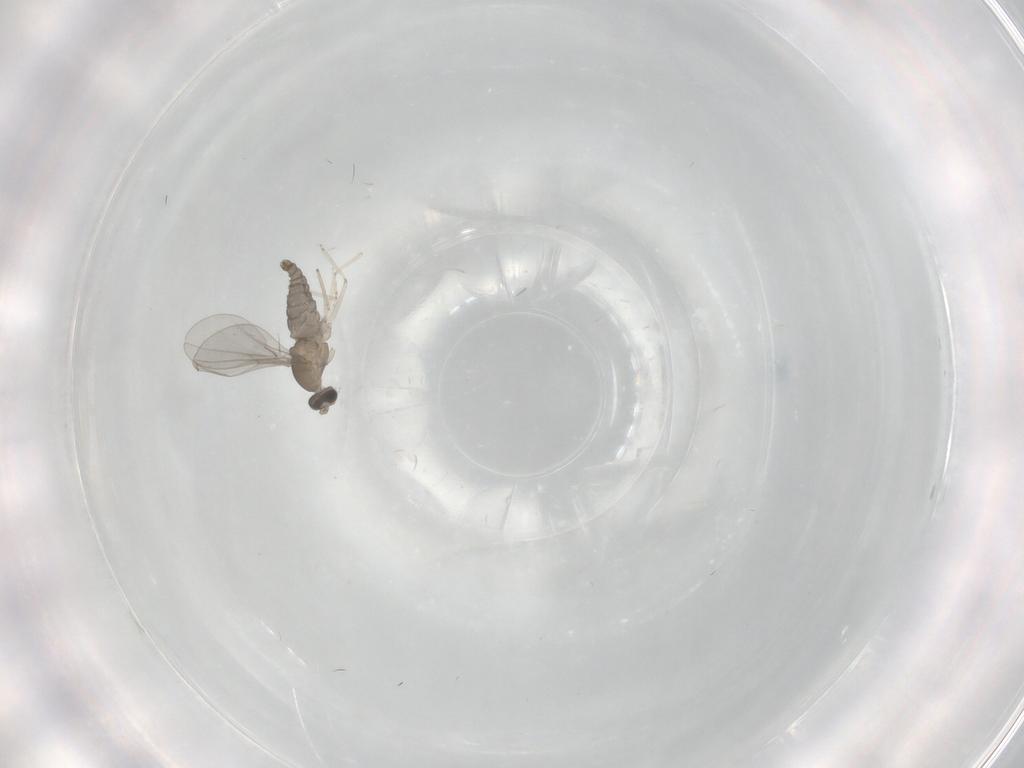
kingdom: Animalia
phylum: Arthropoda
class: Insecta
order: Diptera
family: Cecidomyiidae
